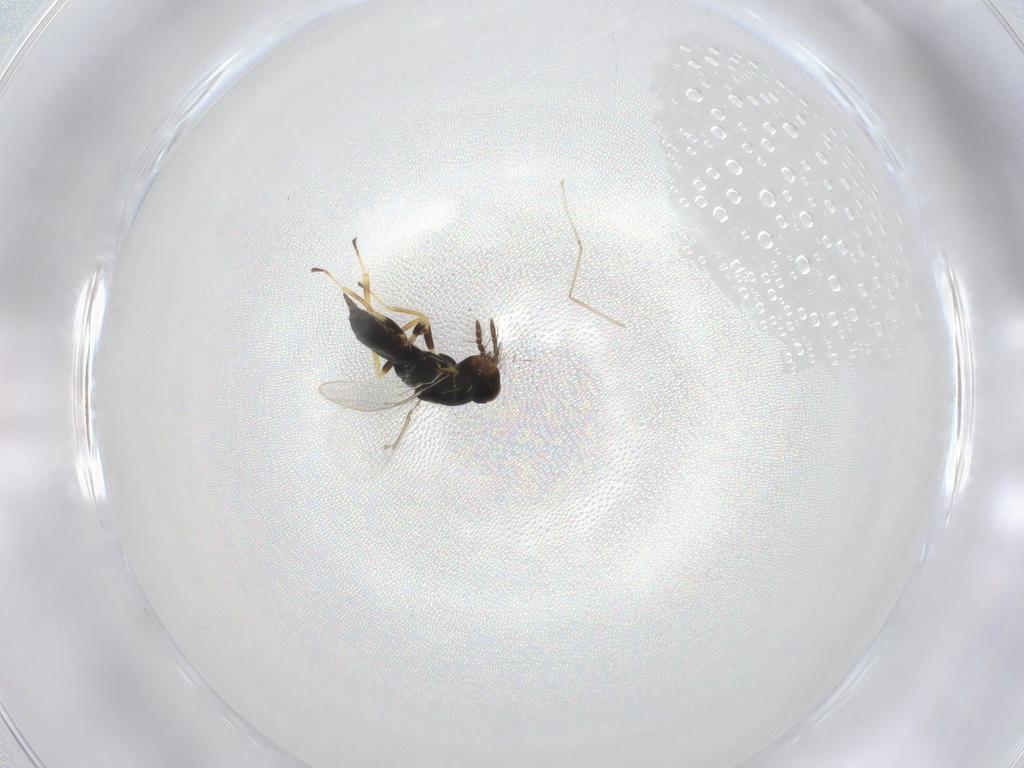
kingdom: Animalia
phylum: Arthropoda
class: Insecta
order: Hymenoptera
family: Eulophidae
